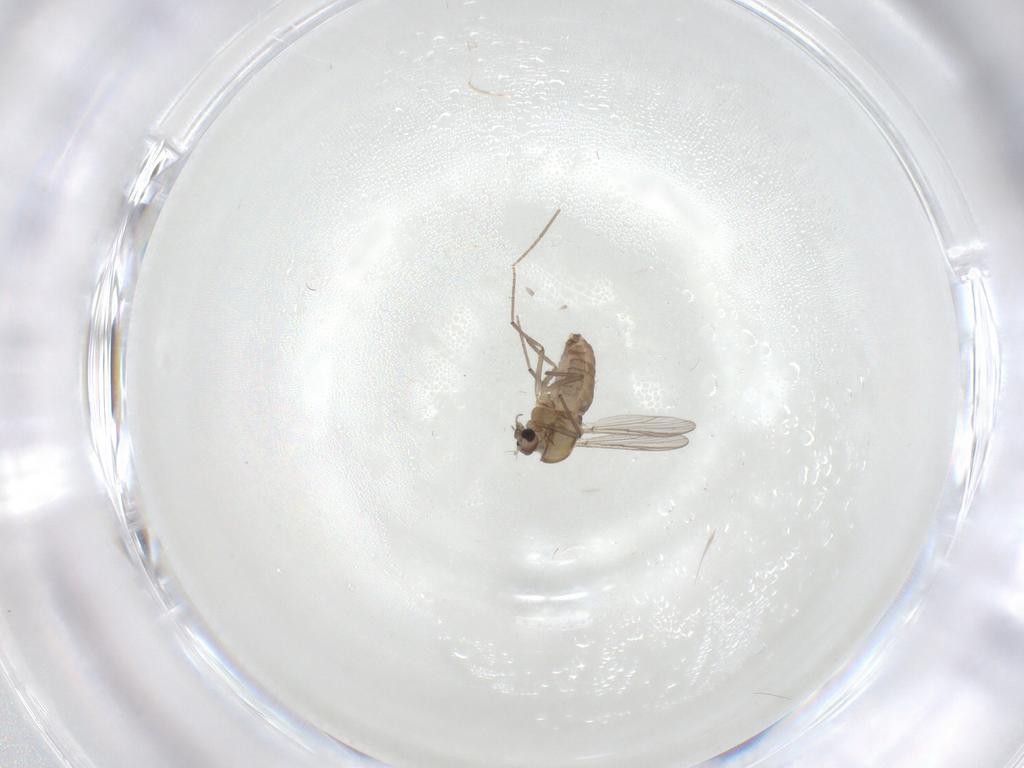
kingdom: Animalia
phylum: Arthropoda
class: Insecta
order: Diptera
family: Chironomidae
